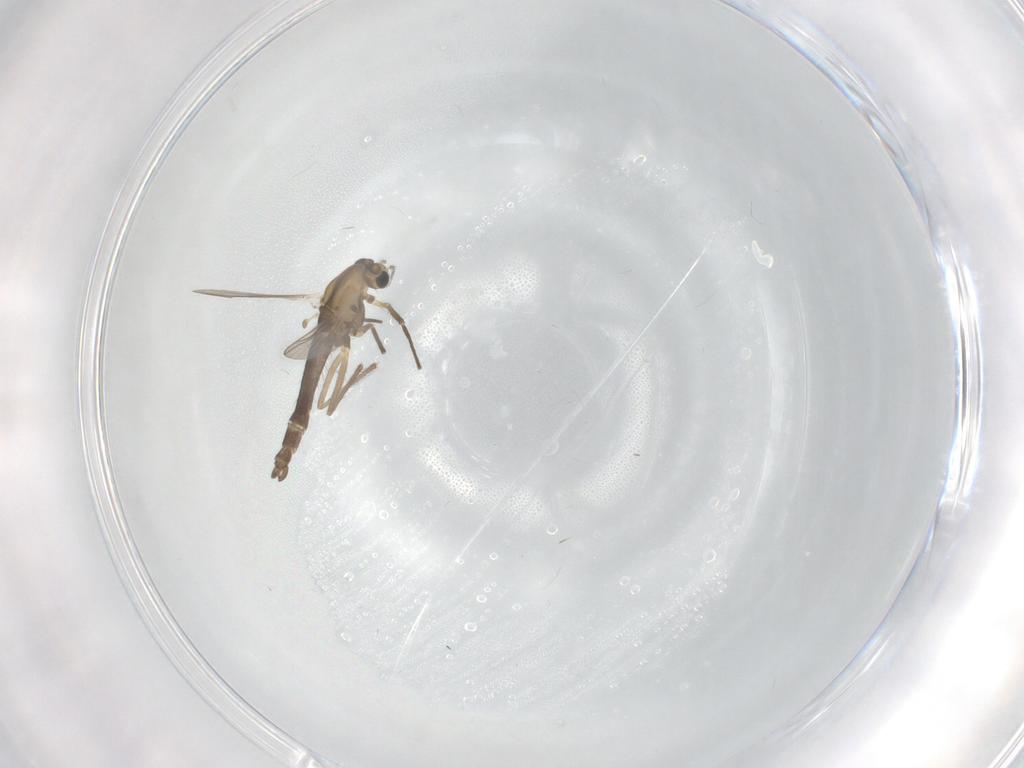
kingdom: Animalia
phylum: Arthropoda
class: Insecta
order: Diptera
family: Chironomidae
